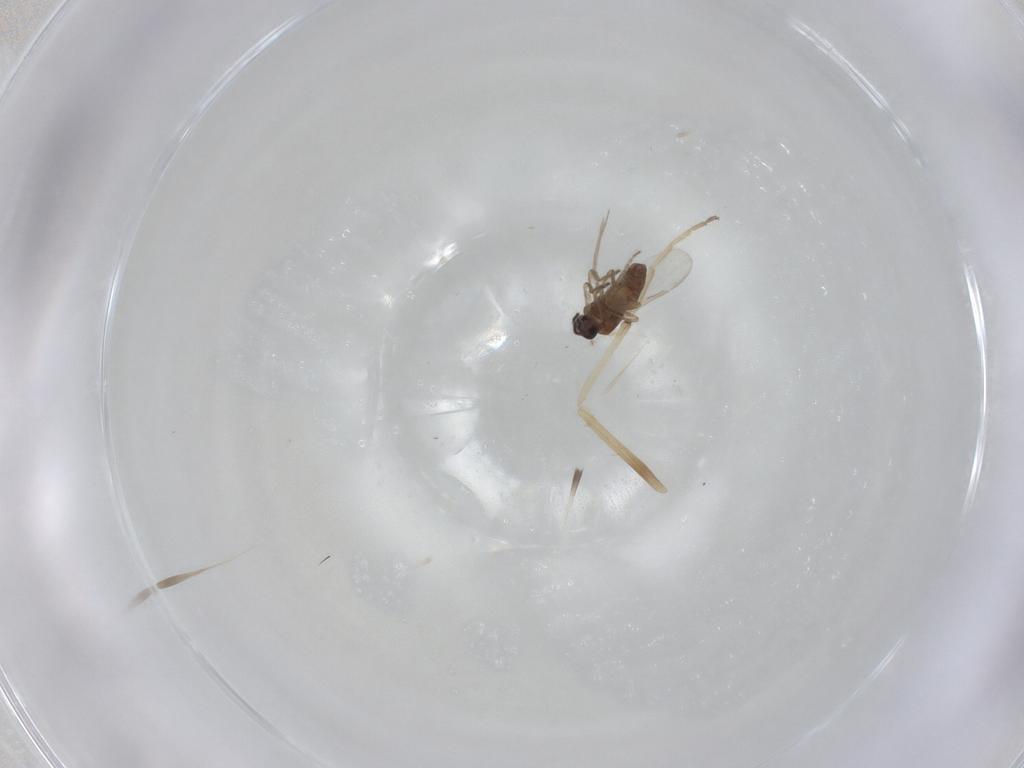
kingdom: Animalia
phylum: Arthropoda
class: Insecta
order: Diptera
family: Ceratopogonidae
